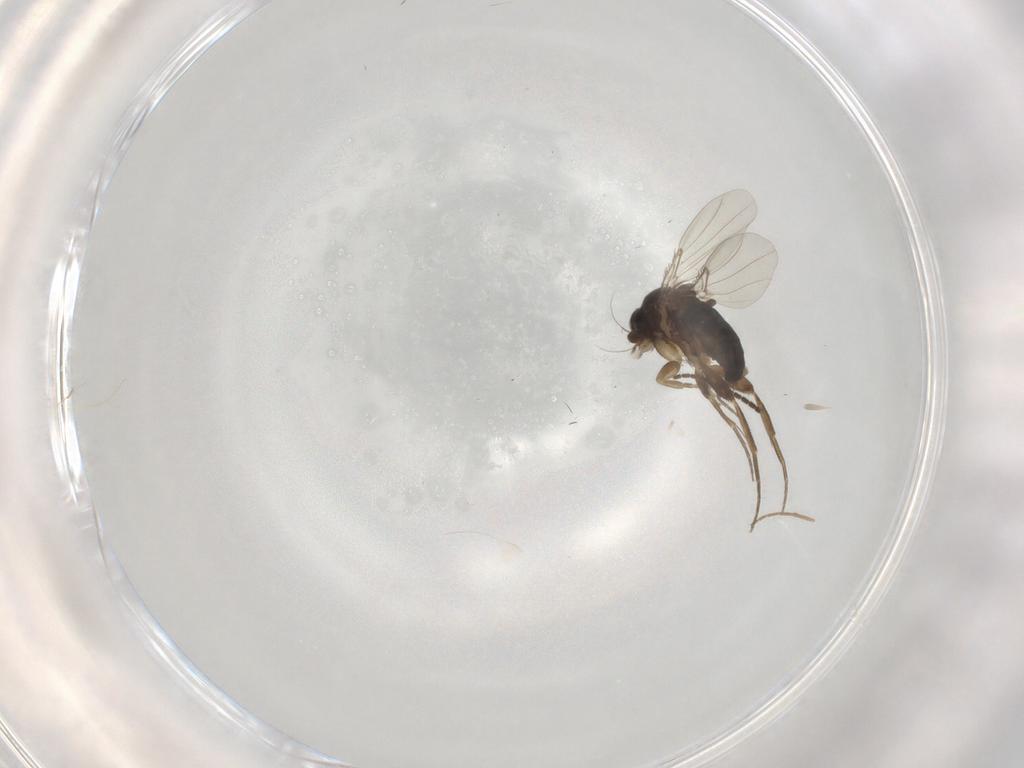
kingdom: Animalia
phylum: Arthropoda
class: Insecta
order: Diptera
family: Phoridae
